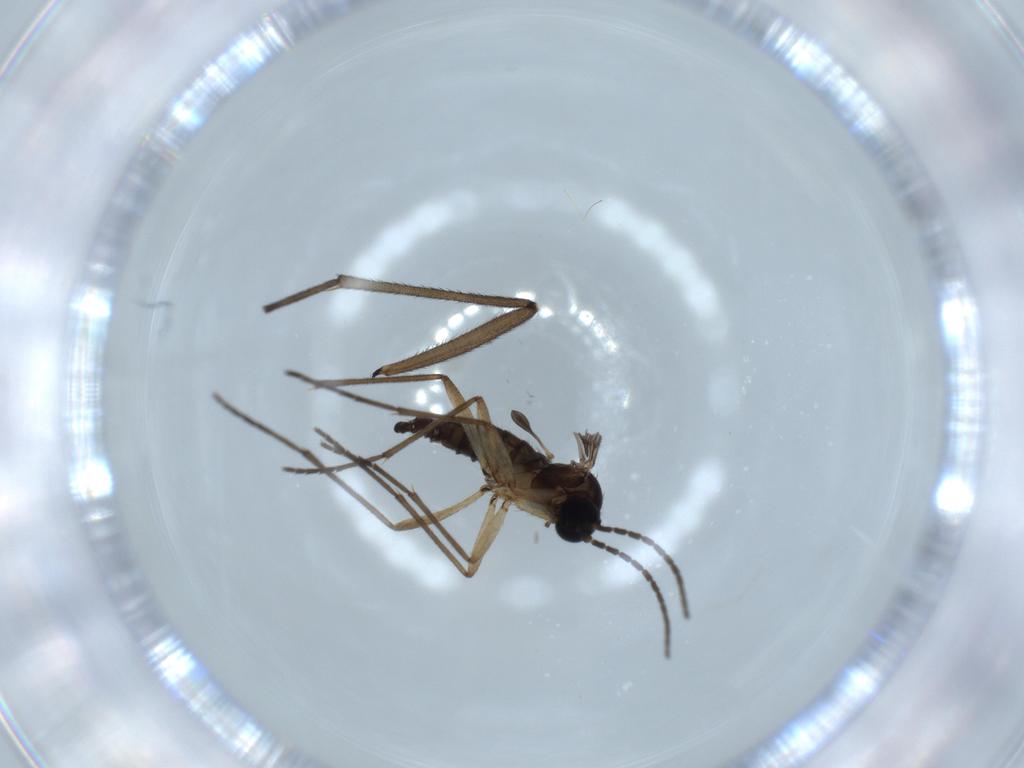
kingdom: Animalia
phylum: Arthropoda
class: Insecta
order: Diptera
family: Sciaridae
